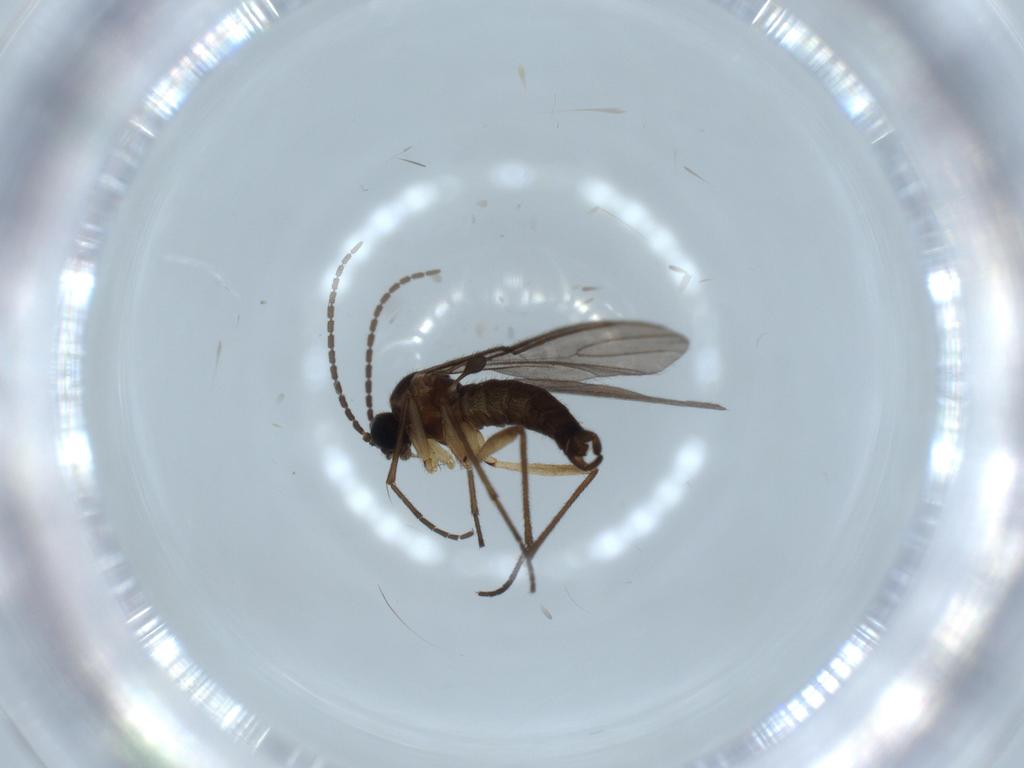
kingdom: Animalia
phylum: Arthropoda
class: Insecta
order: Diptera
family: Sciaridae
